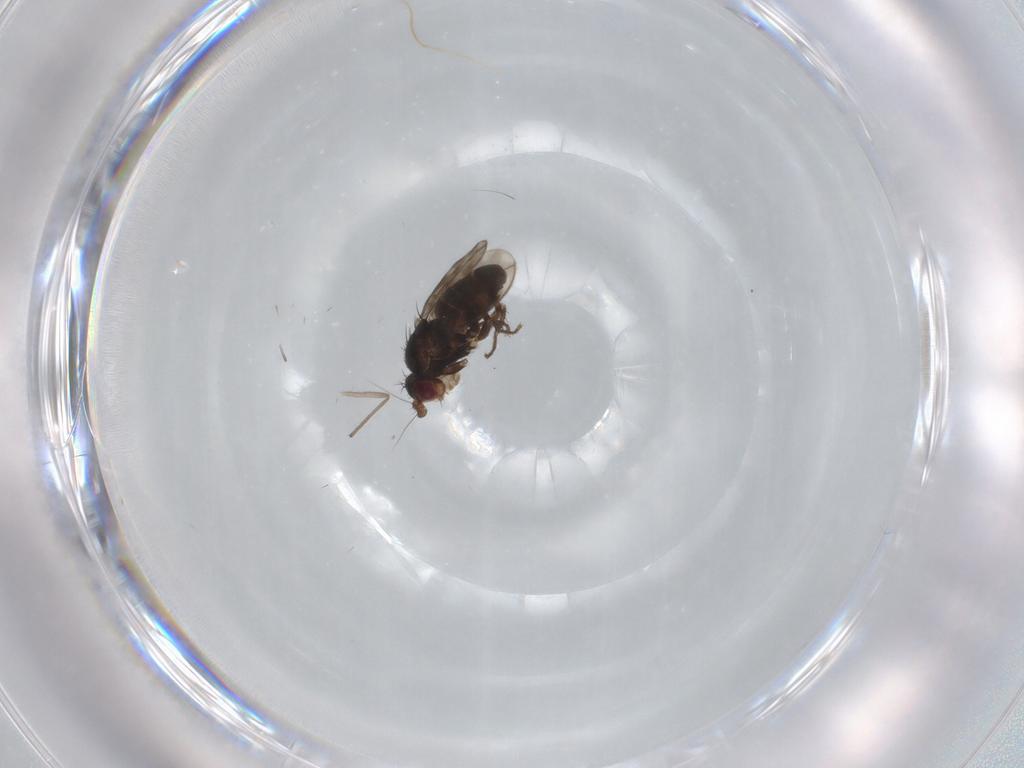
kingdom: Animalia
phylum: Arthropoda
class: Insecta
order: Diptera
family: Sphaeroceridae
